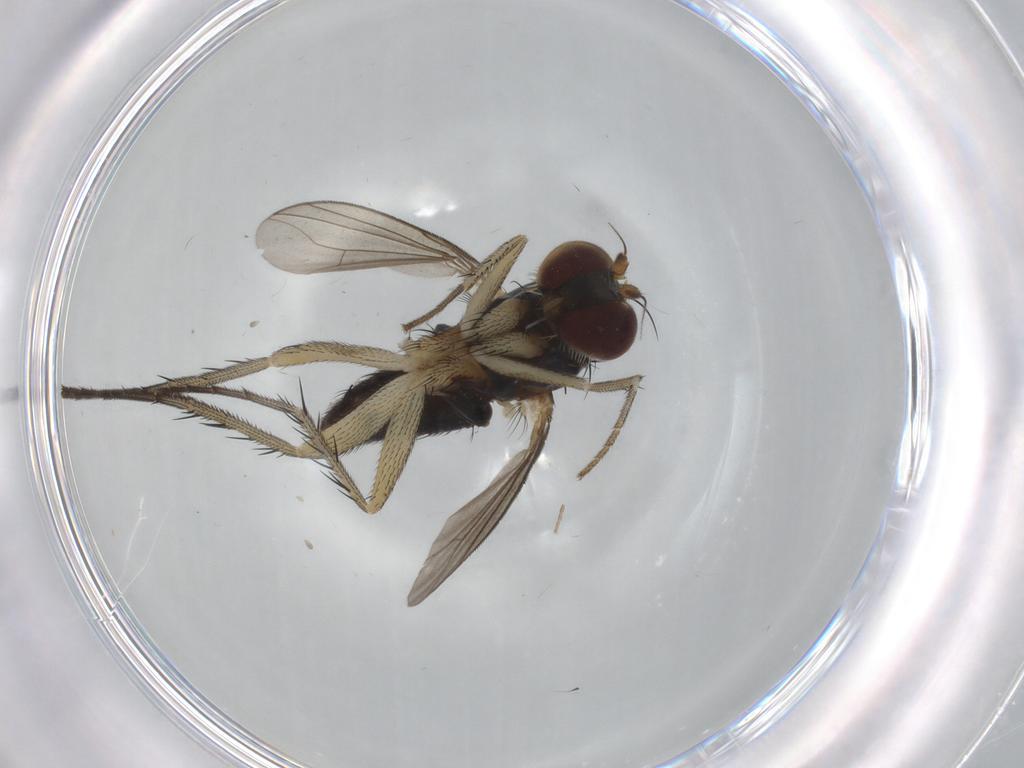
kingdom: Animalia
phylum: Arthropoda
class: Insecta
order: Diptera
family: Dolichopodidae
